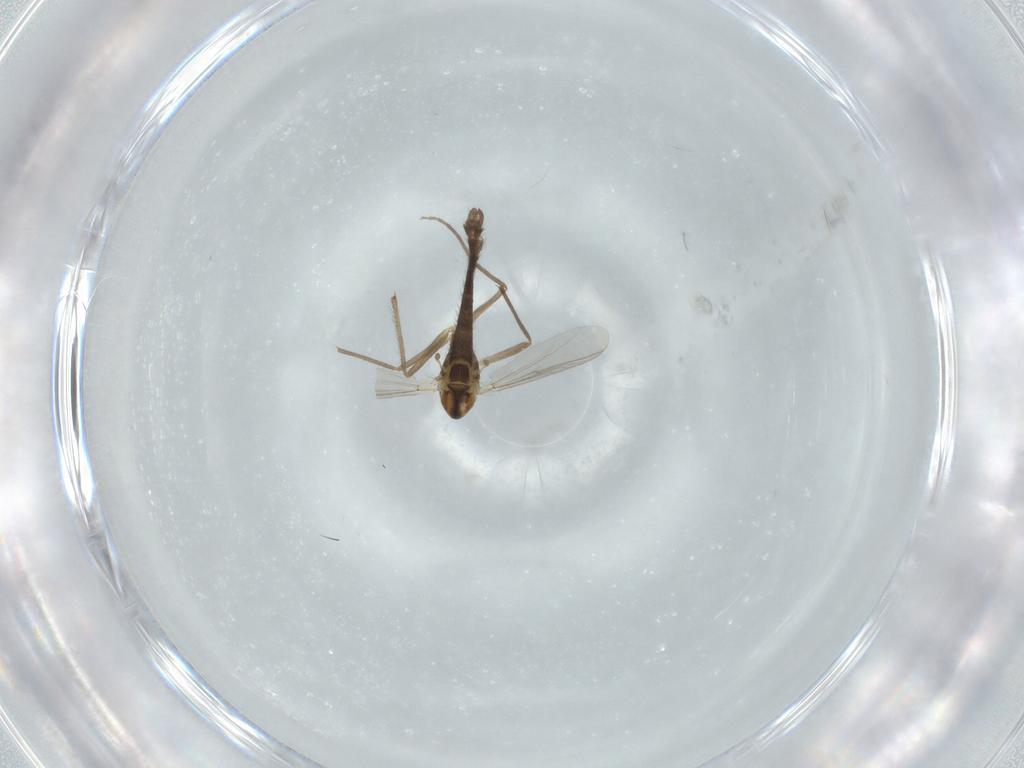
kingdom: Animalia
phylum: Arthropoda
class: Insecta
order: Diptera
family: Chironomidae
